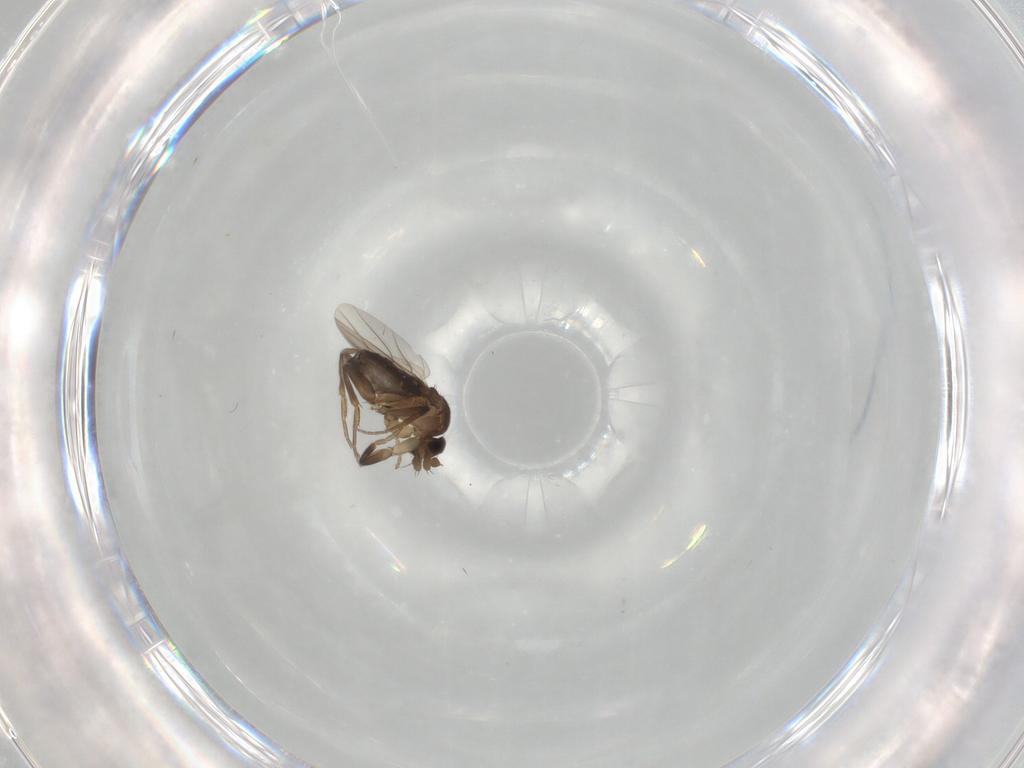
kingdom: Animalia
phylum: Arthropoda
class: Insecta
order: Diptera
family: Phoridae
